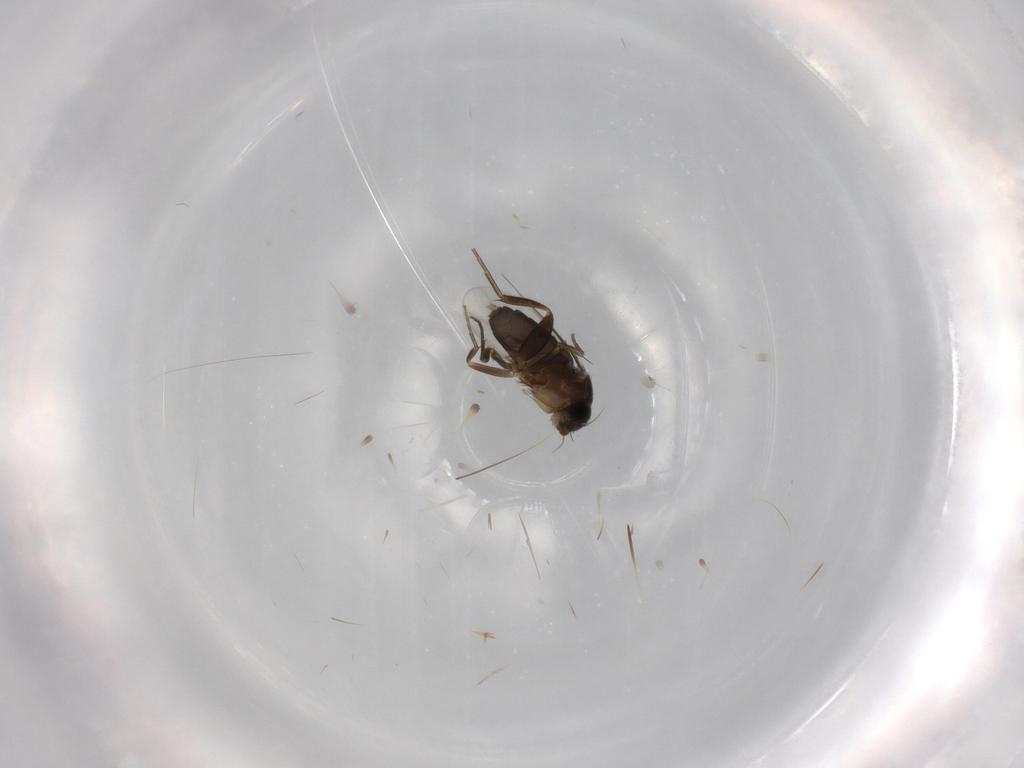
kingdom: Animalia
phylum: Arthropoda
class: Insecta
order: Diptera
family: Phoridae
